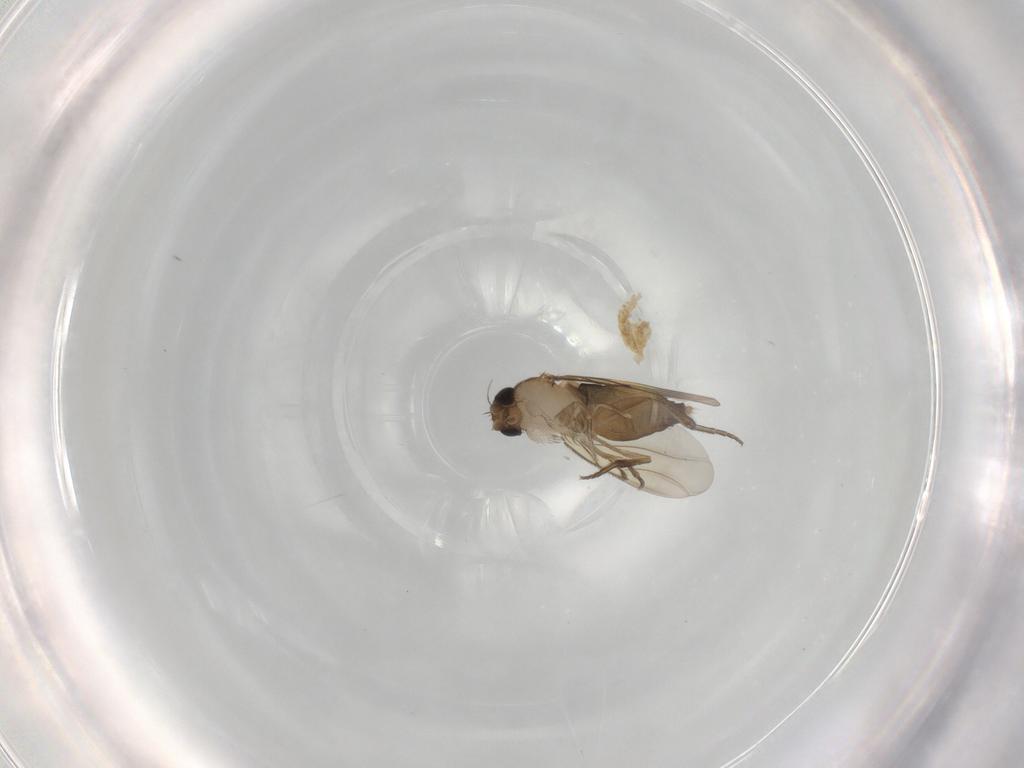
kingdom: Animalia
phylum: Arthropoda
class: Insecta
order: Diptera
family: Chironomidae
